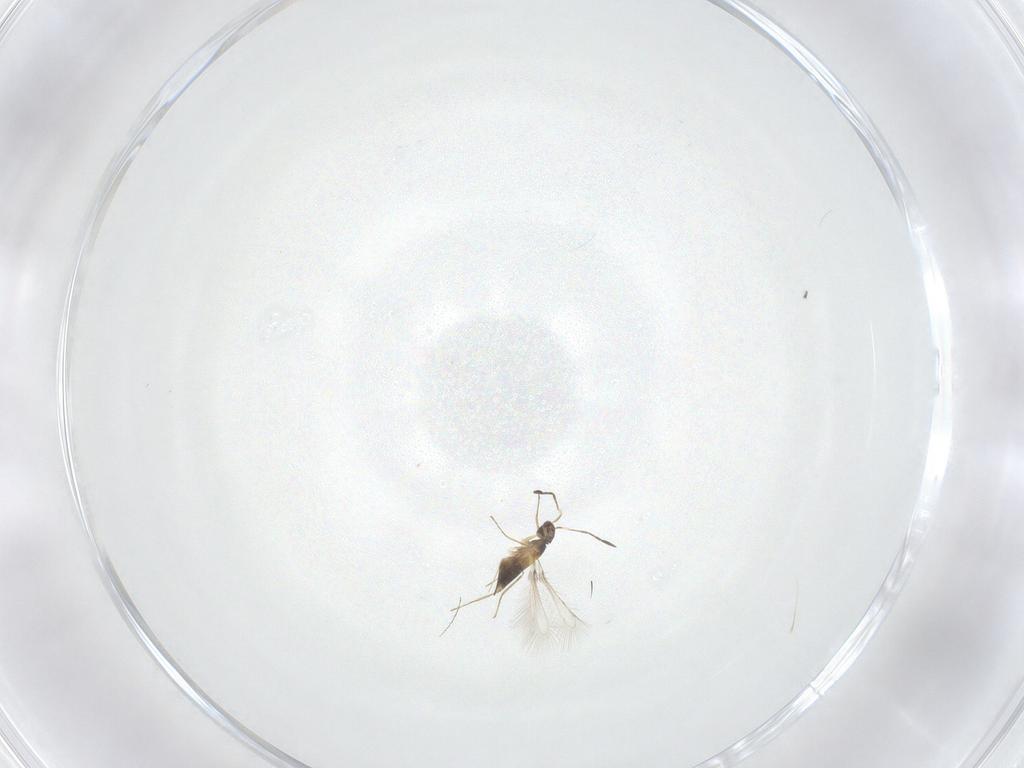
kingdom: Animalia
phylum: Arthropoda
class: Insecta
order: Hymenoptera
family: Mymaridae
